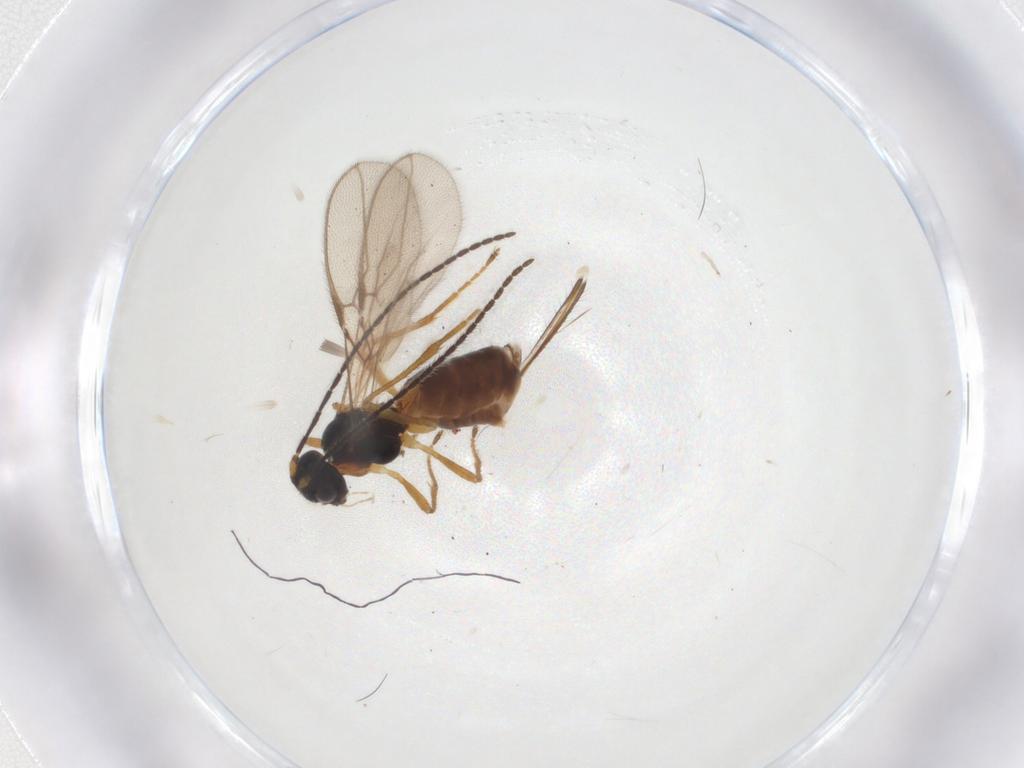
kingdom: Animalia
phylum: Arthropoda
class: Insecta
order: Hymenoptera
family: Braconidae
